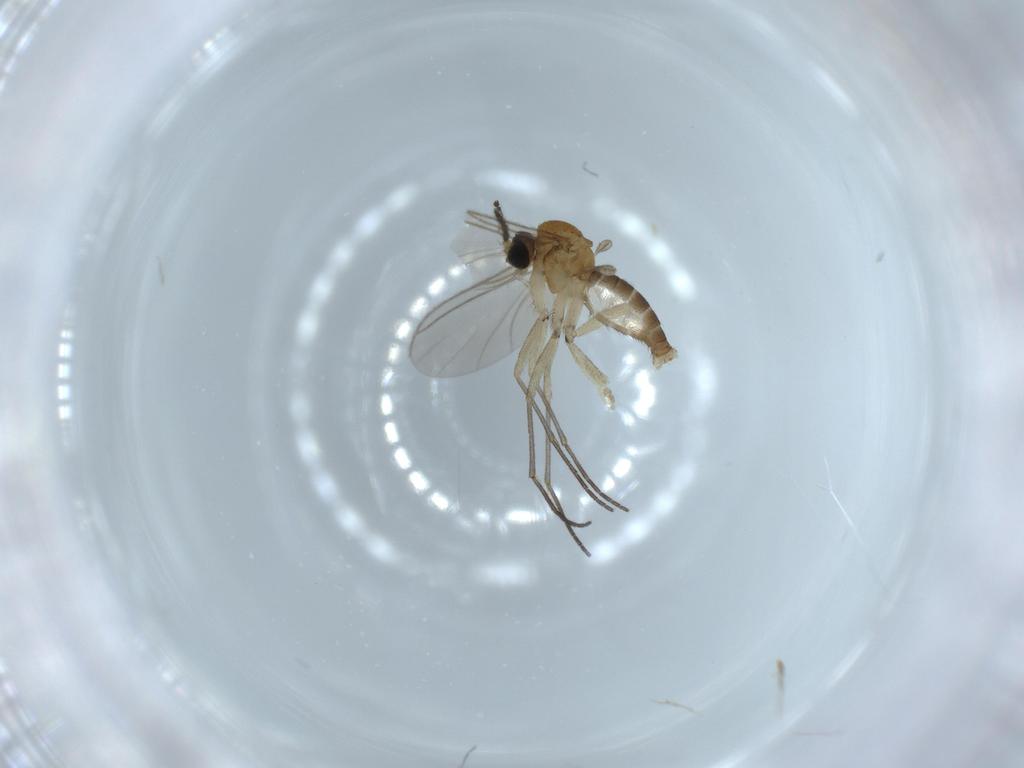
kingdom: Animalia
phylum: Arthropoda
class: Insecta
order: Diptera
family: Sciaridae
